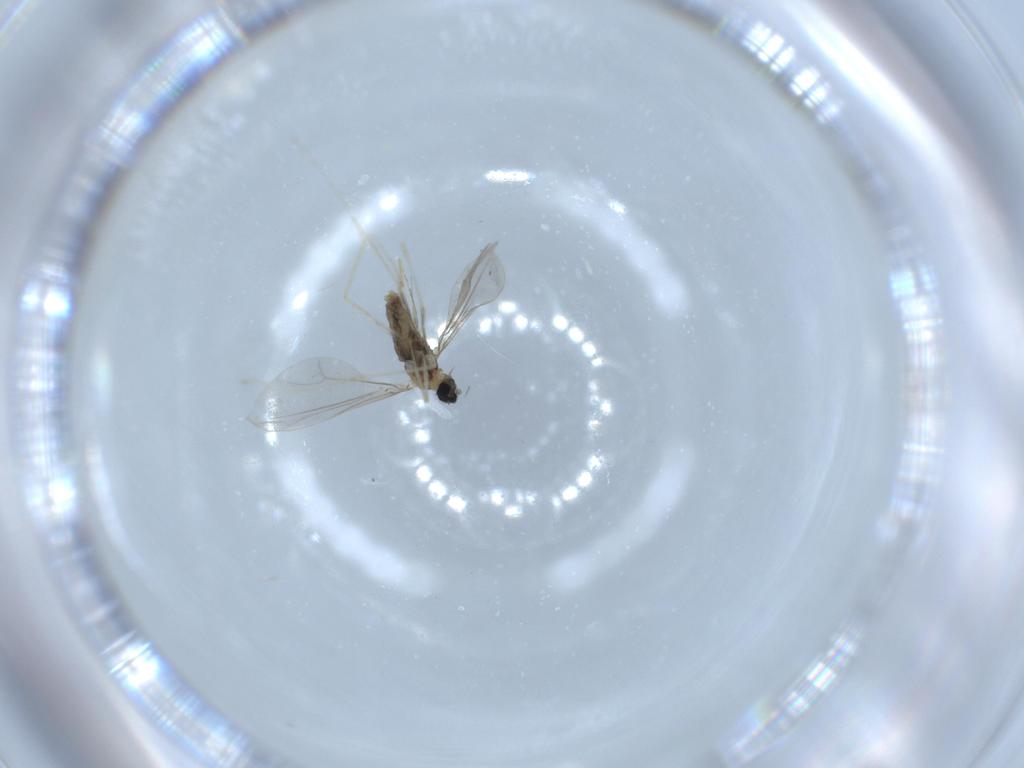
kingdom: Animalia
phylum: Arthropoda
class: Insecta
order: Diptera
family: Cecidomyiidae
